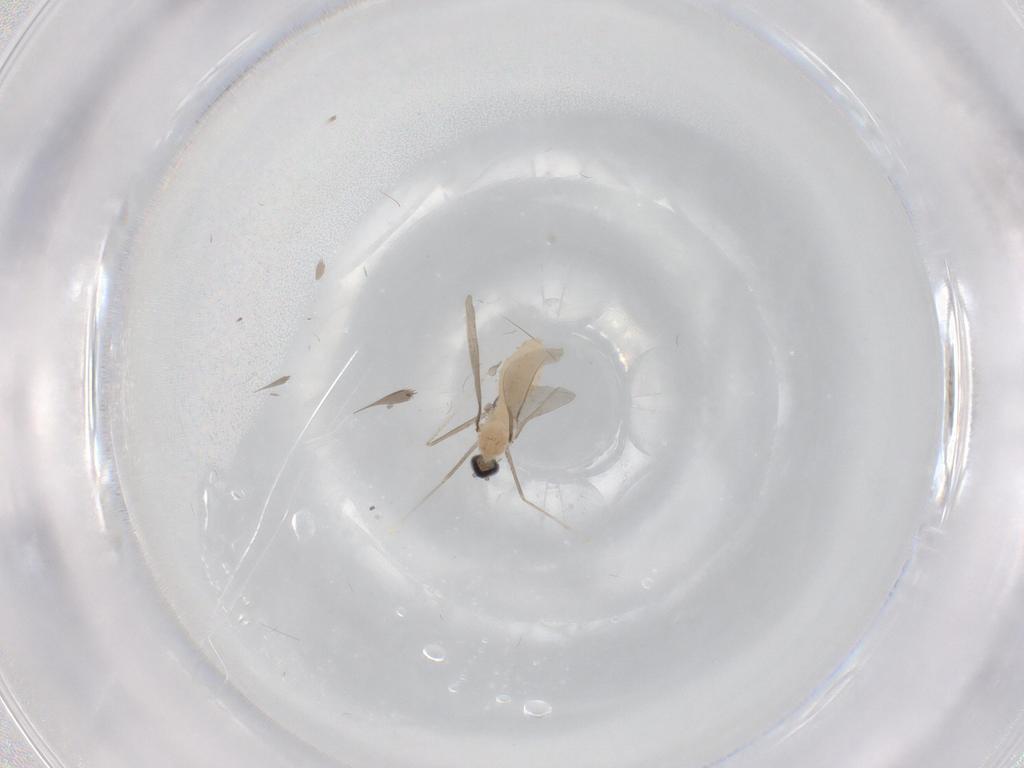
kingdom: Animalia
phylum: Arthropoda
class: Insecta
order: Diptera
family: Cecidomyiidae
